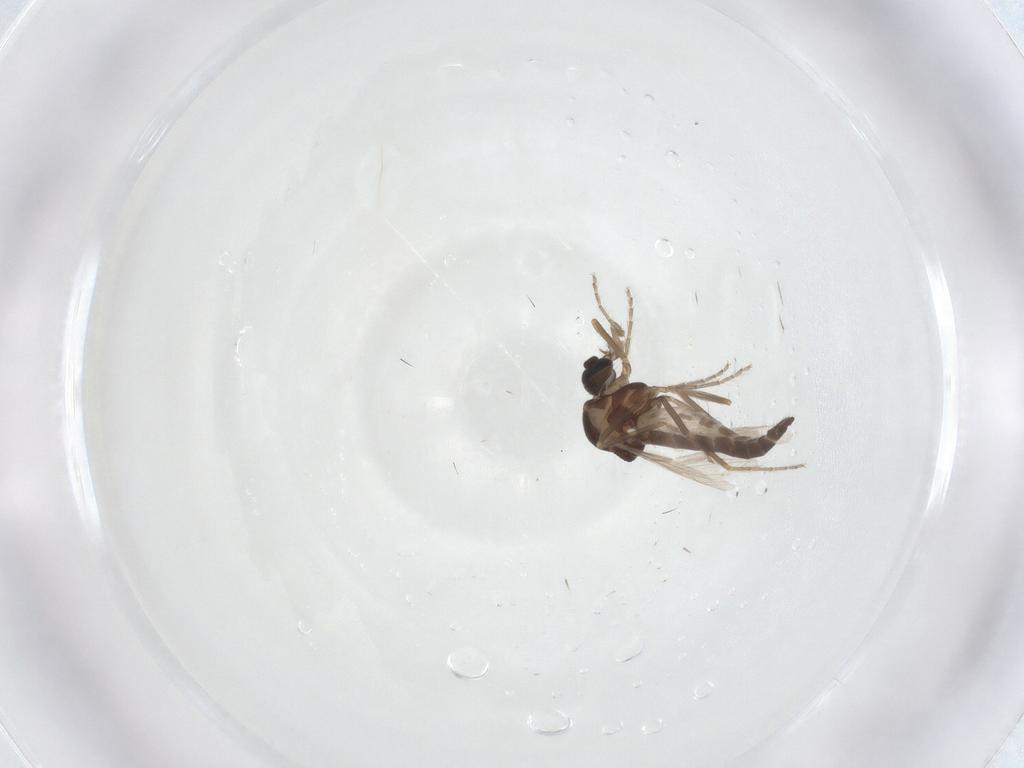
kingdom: Animalia
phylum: Arthropoda
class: Insecta
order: Diptera
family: Ceratopogonidae
